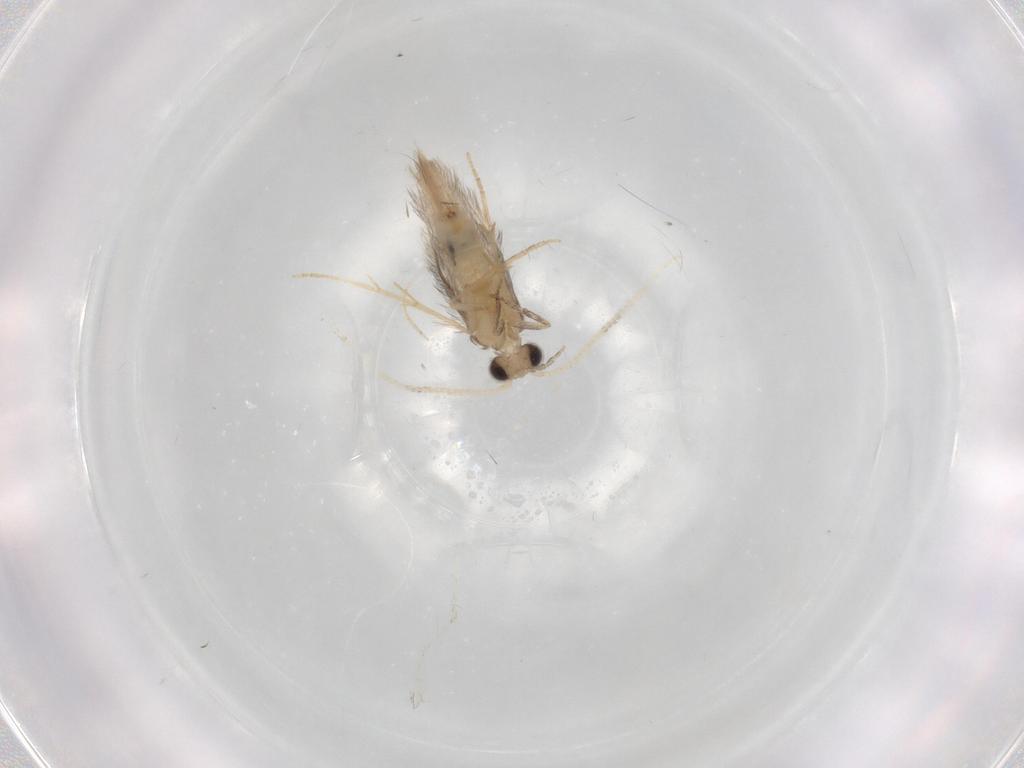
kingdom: Animalia
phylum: Arthropoda
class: Insecta
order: Trichoptera
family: Hydroptilidae
